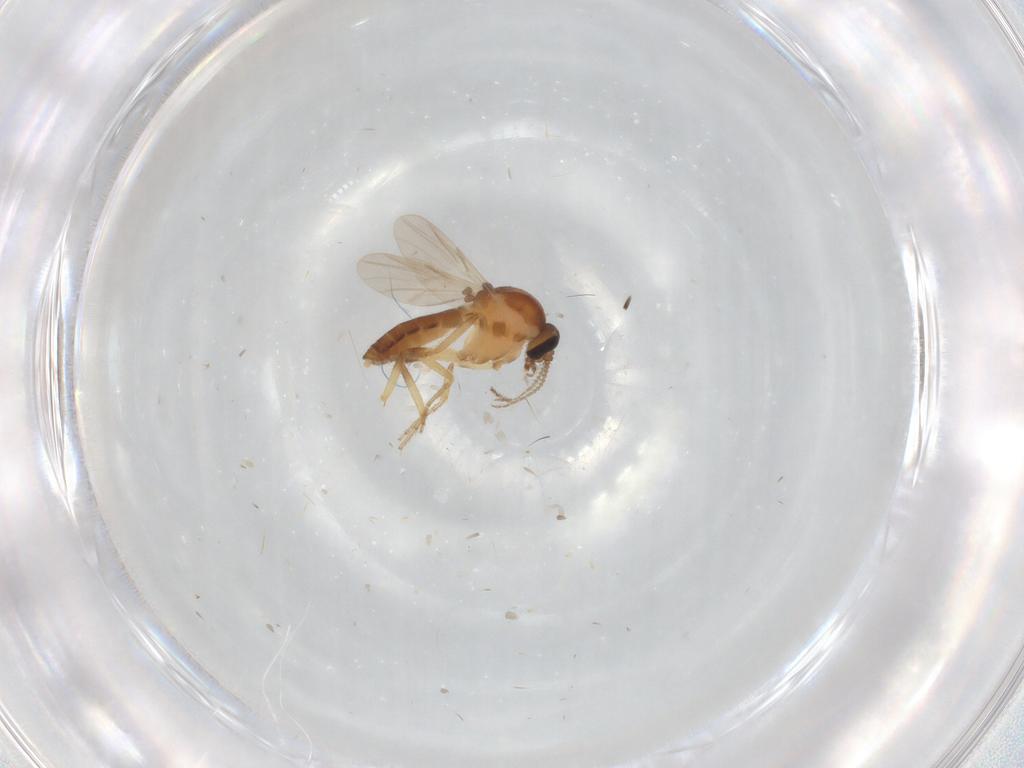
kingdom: Animalia
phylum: Arthropoda
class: Insecta
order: Diptera
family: Cecidomyiidae
